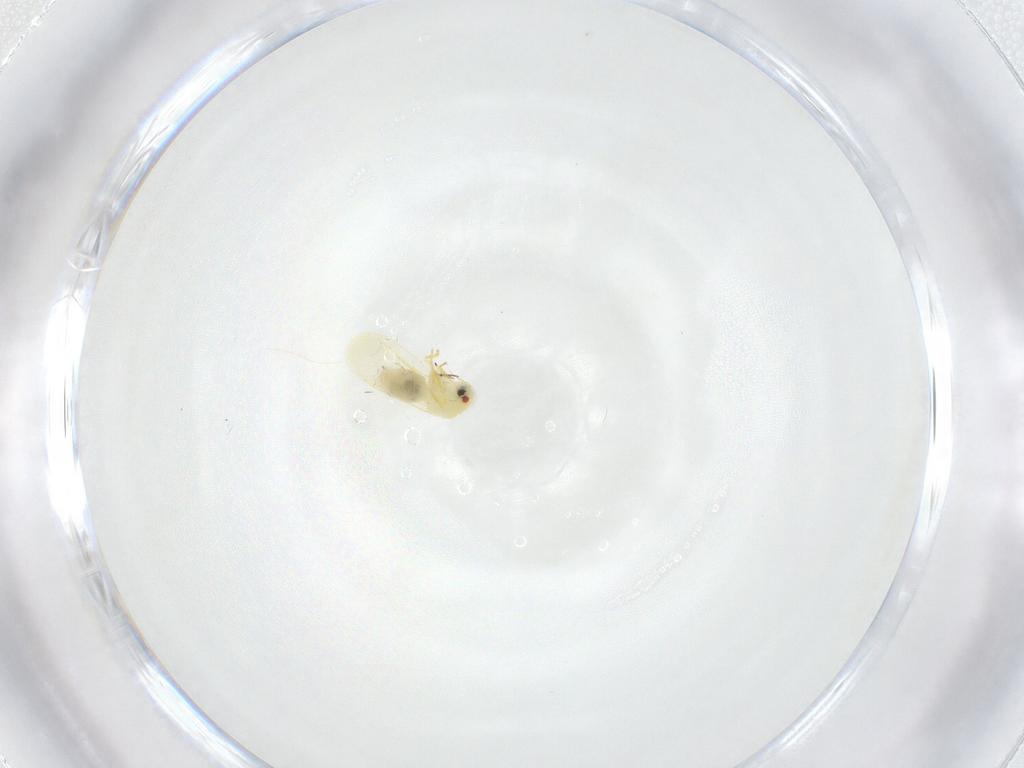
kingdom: Animalia
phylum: Arthropoda
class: Insecta
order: Hemiptera
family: Aleyrodidae
